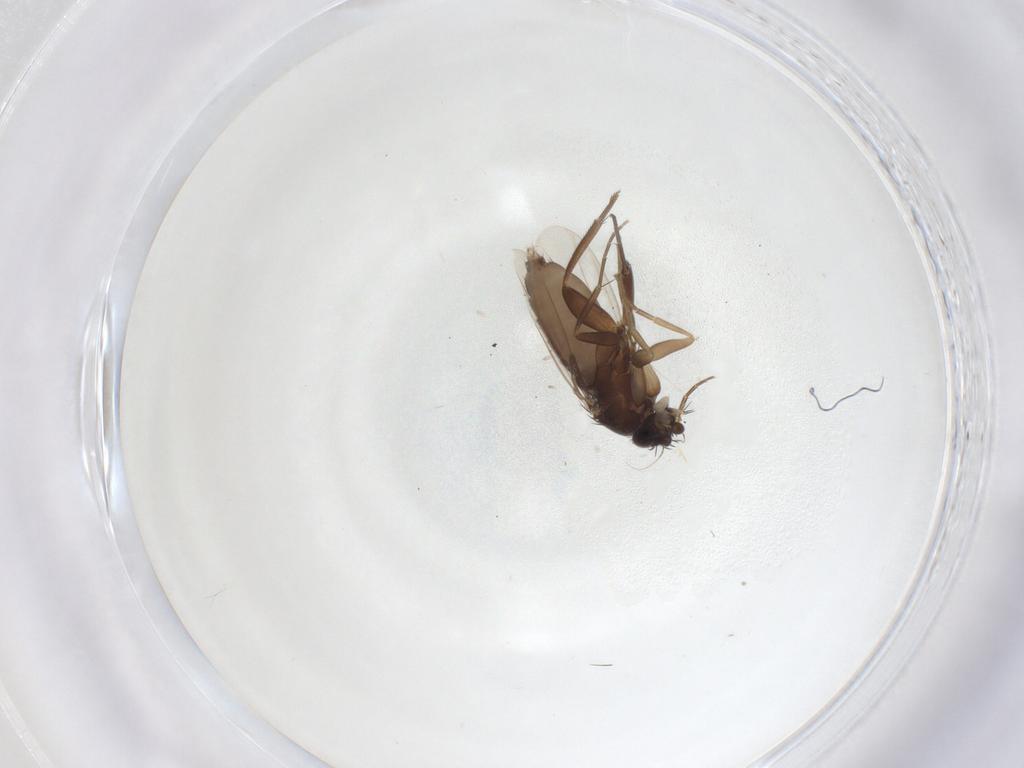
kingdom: Animalia
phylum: Arthropoda
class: Insecta
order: Diptera
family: Phoridae
